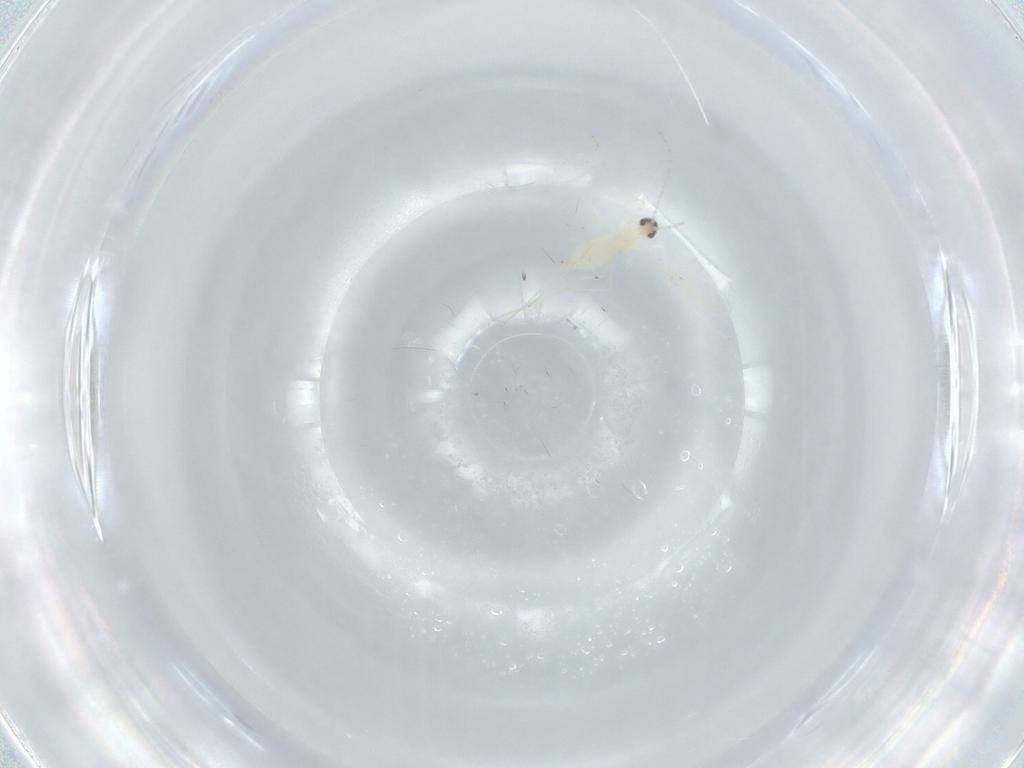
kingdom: Animalia
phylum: Arthropoda
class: Insecta
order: Diptera
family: Cecidomyiidae
